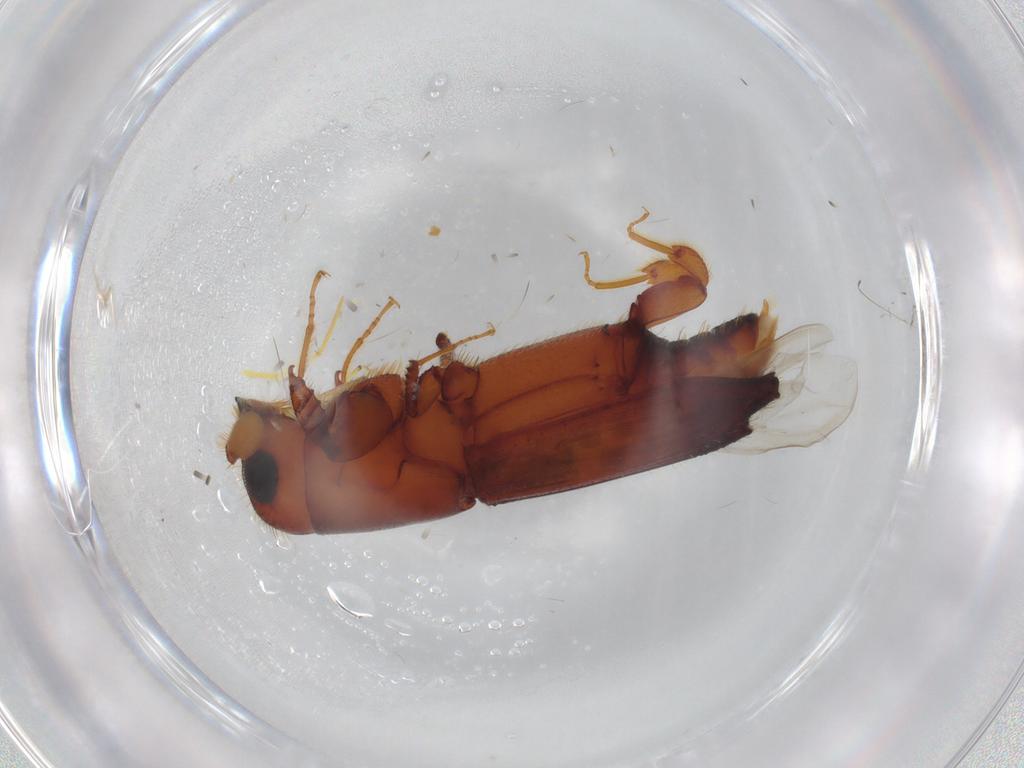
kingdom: Animalia
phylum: Arthropoda
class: Insecta
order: Coleoptera
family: Curculionidae
